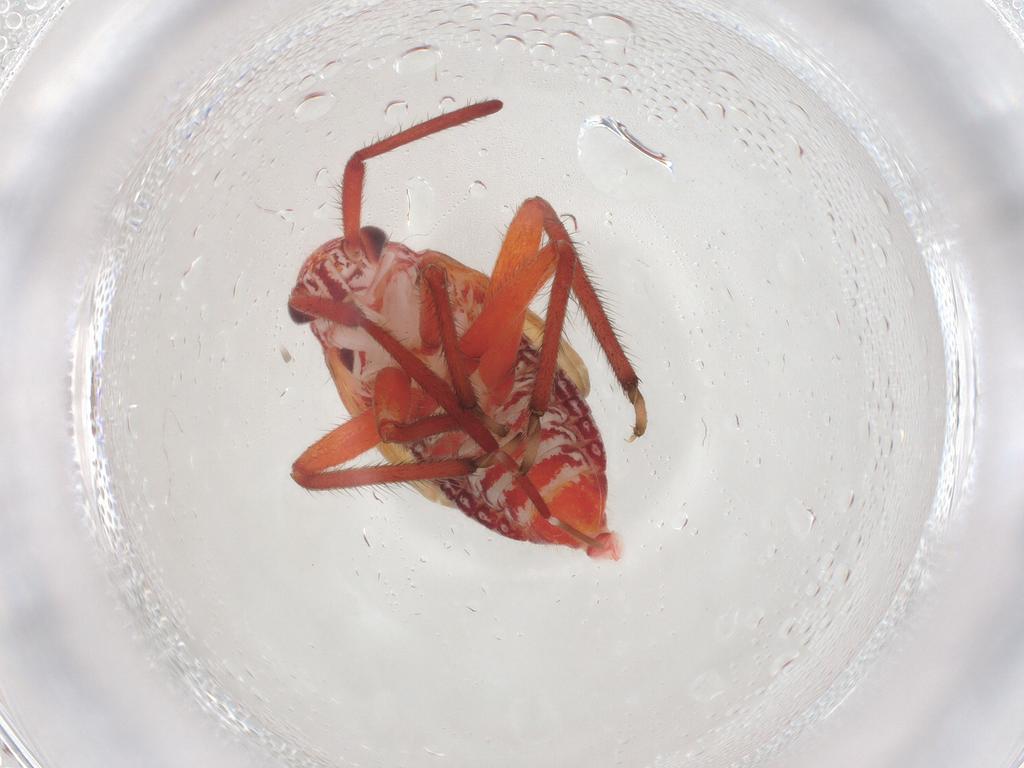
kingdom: Animalia
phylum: Arthropoda
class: Insecta
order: Hemiptera
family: Miridae
